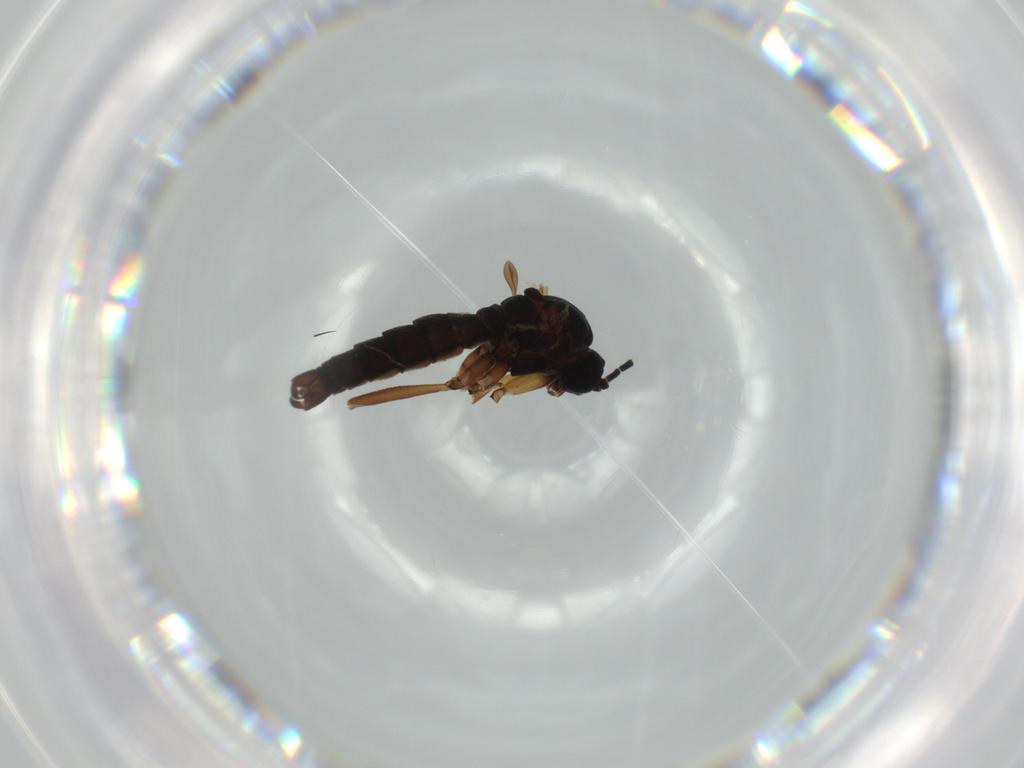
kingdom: Animalia
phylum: Arthropoda
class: Insecta
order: Diptera
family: Sciaridae
